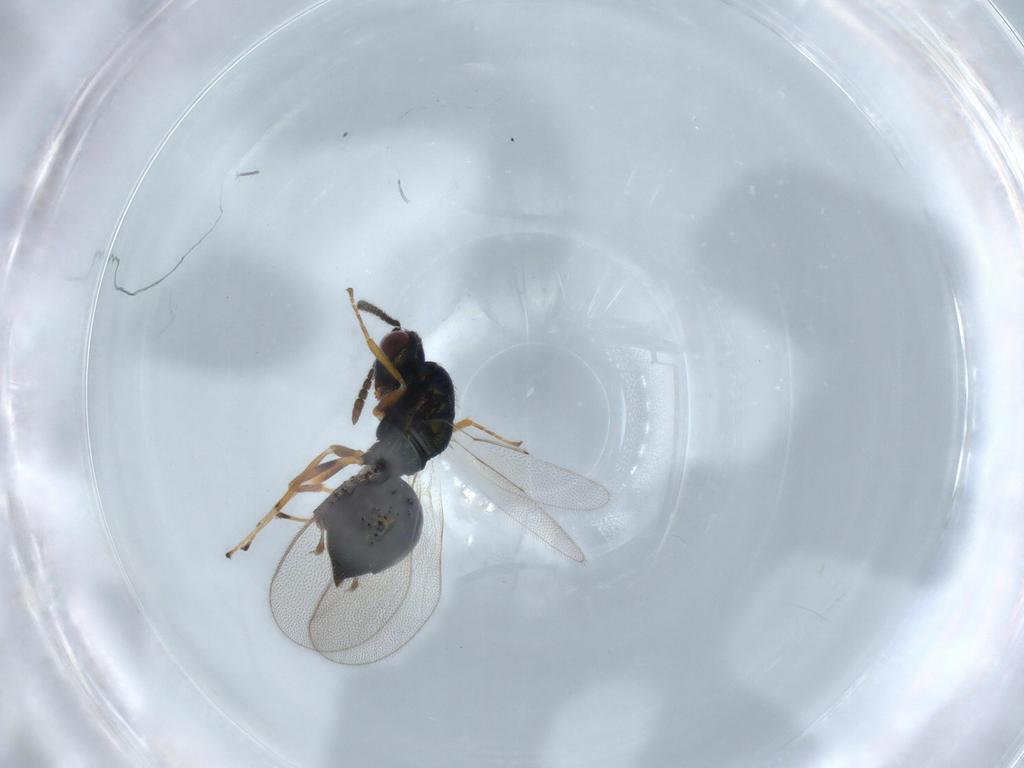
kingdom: Animalia
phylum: Arthropoda
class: Insecta
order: Hymenoptera
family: Pteromalidae
